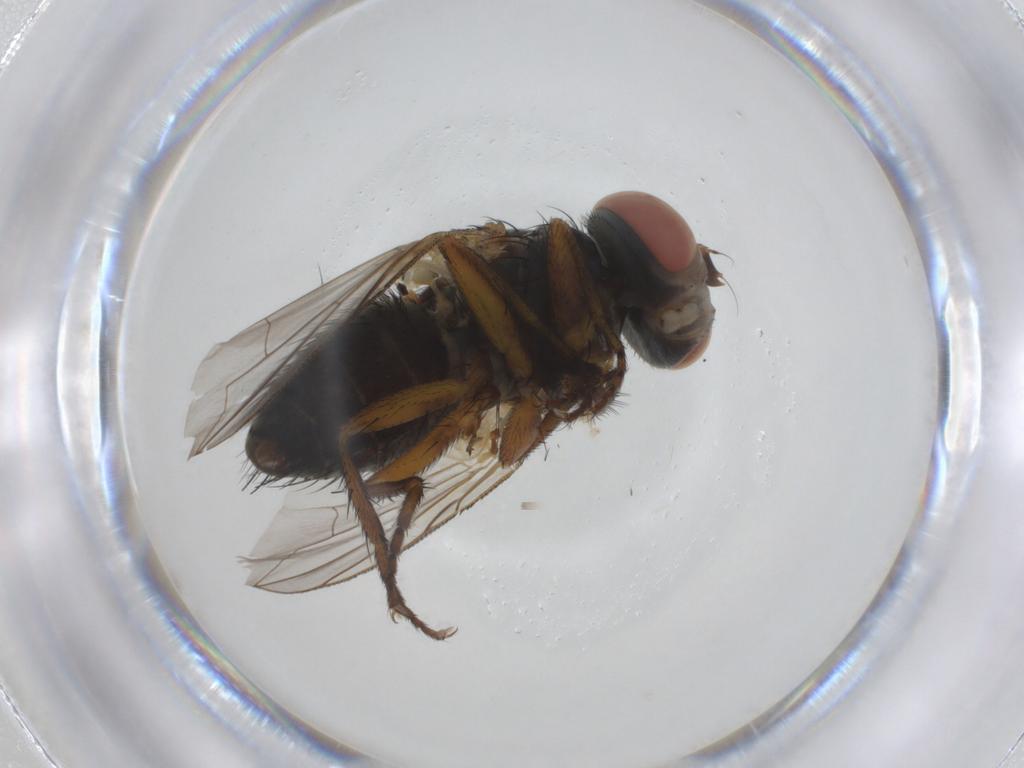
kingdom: Animalia
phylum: Arthropoda
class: Insecta
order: Diptera
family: Tachinidae
